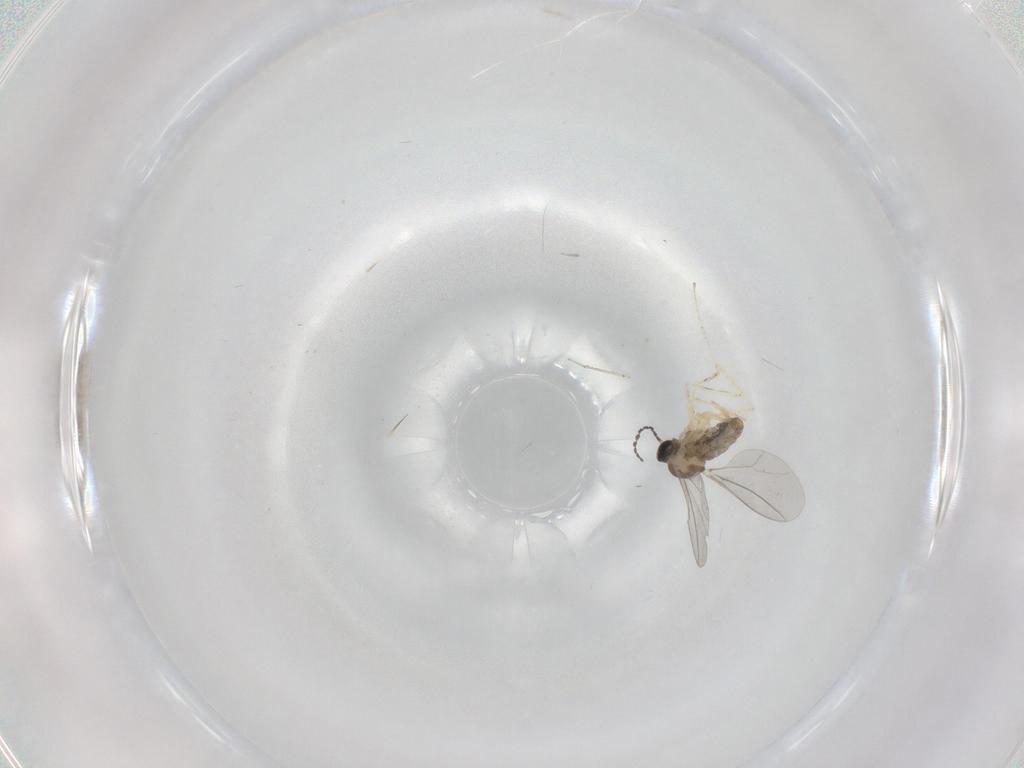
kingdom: Animalia
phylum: Arthropoda
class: Insecta
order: Diptera
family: Cecidomyiidae
